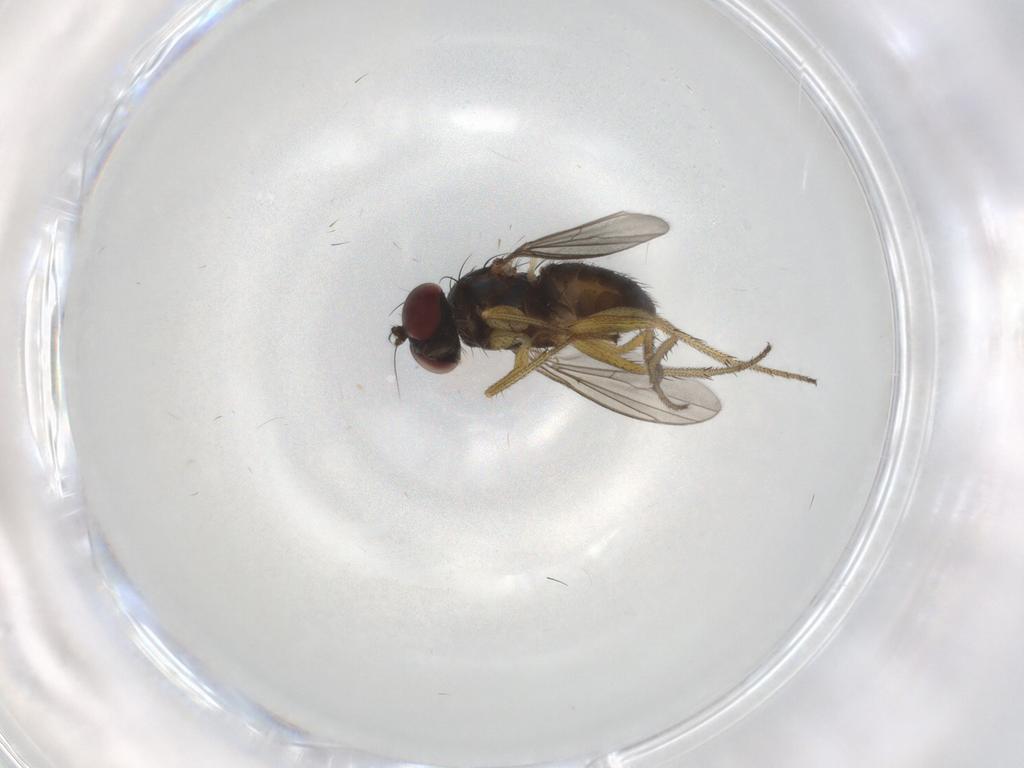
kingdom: Animalia
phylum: Arthropoda
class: Insecta
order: Diptera
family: Dolichopodidae
